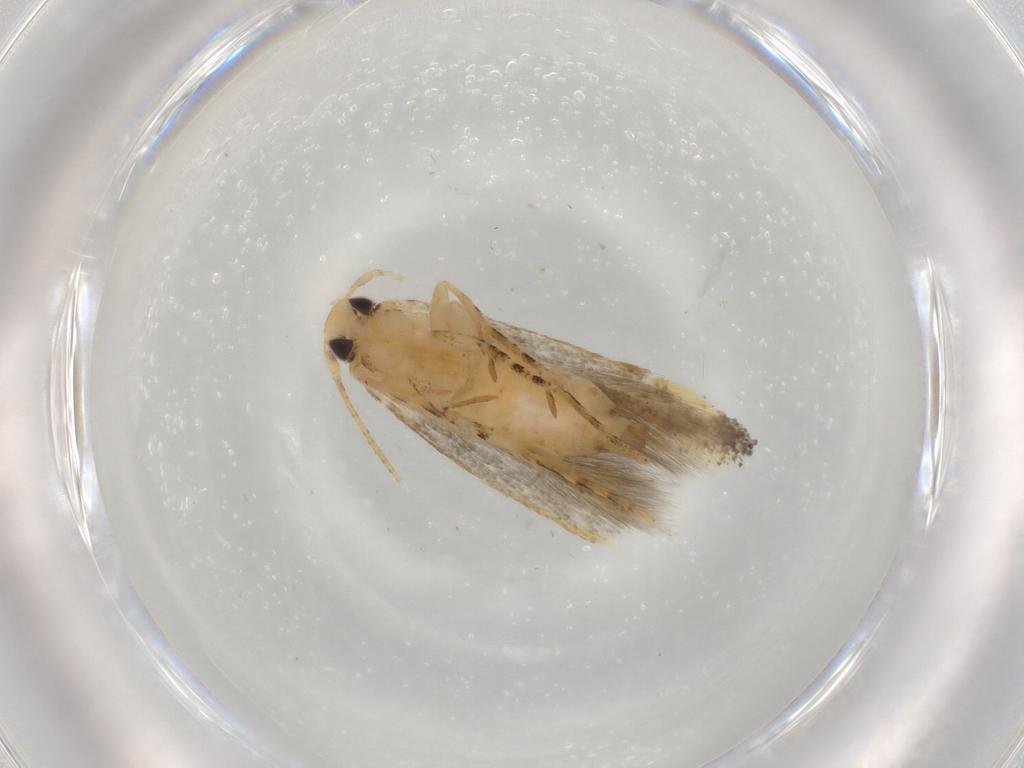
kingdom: Animalia
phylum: Arthropoda
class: Insecta
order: Lepidoptera
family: Gelechiidae
